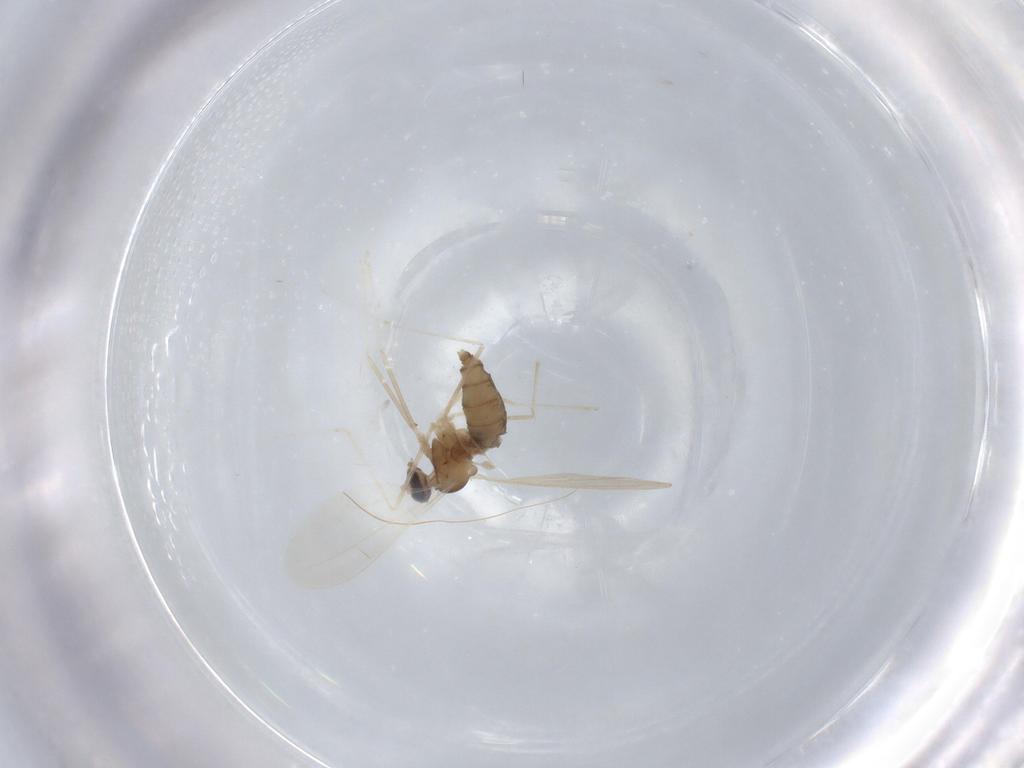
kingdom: Animalia
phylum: Arthropoda
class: Insecta
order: Diptera
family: Cecidomyiidae
